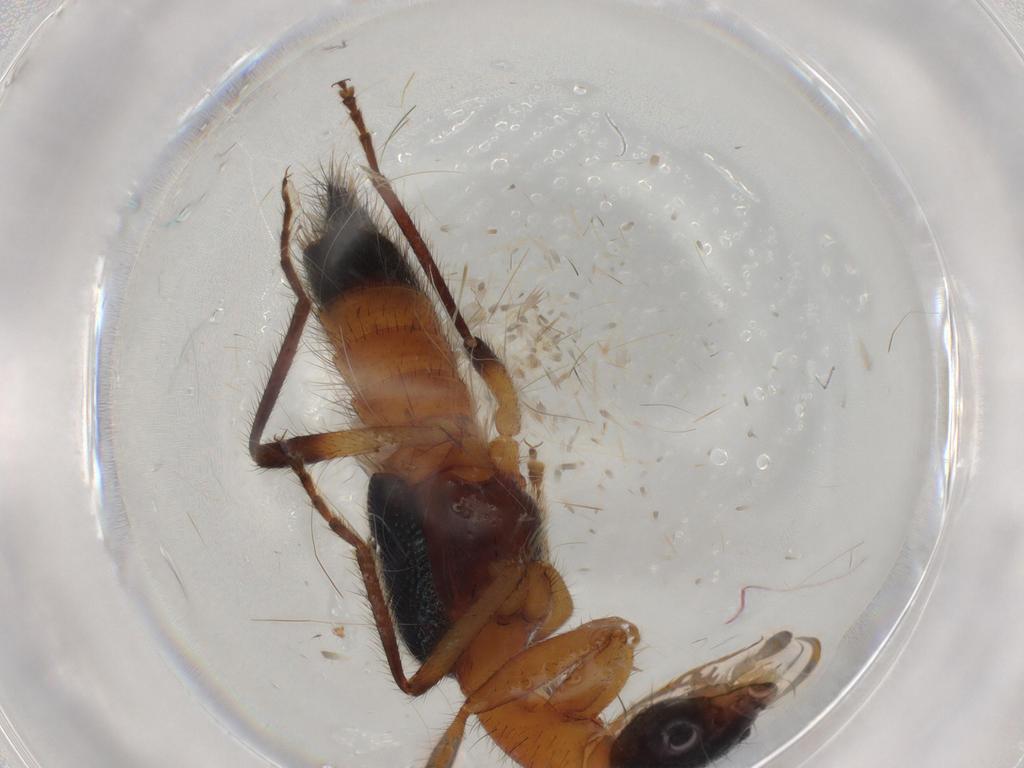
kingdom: Animalia
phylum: Arthropoda
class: Insecta
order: Coleoptera
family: Staphylinidae
